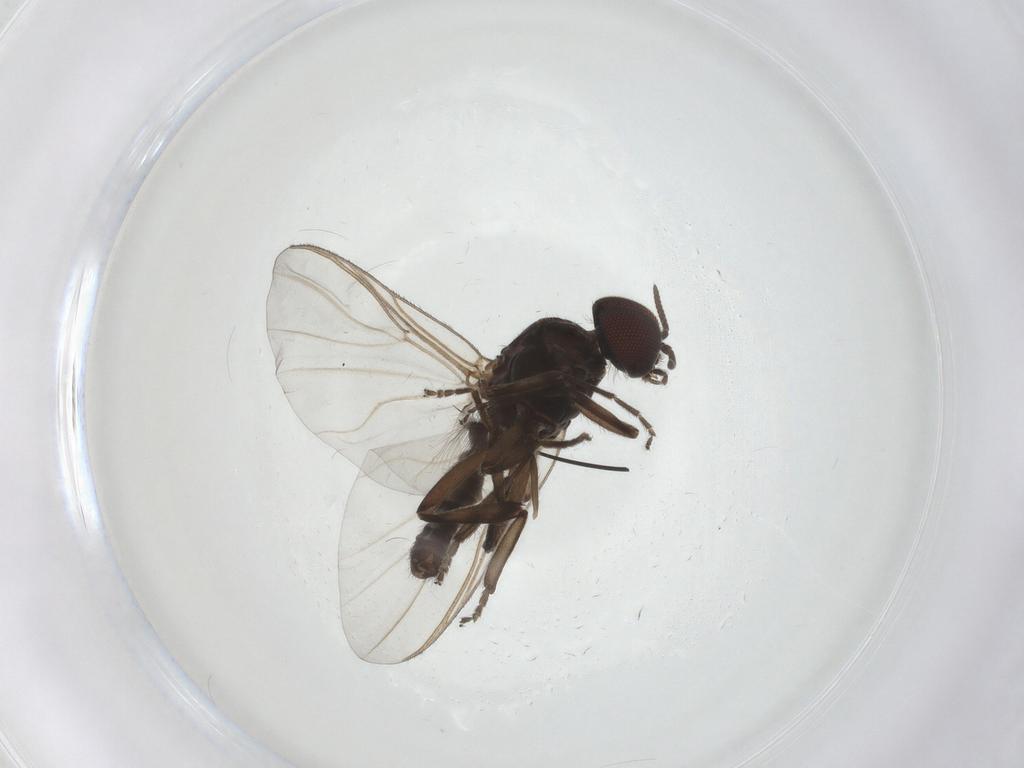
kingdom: Animalia
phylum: Arthropoda
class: Insecta
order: Diptera
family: Simuliidae
